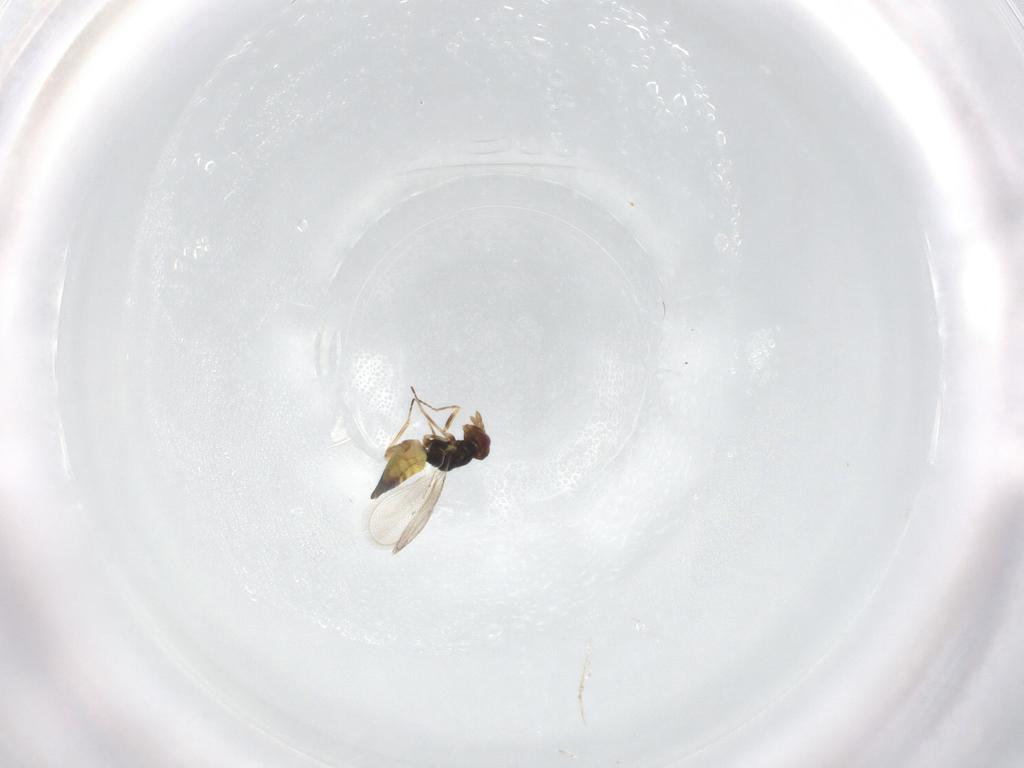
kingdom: Animalia
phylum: Arthropoda
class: Insecta
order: Hymenoptera
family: Eulophidae
